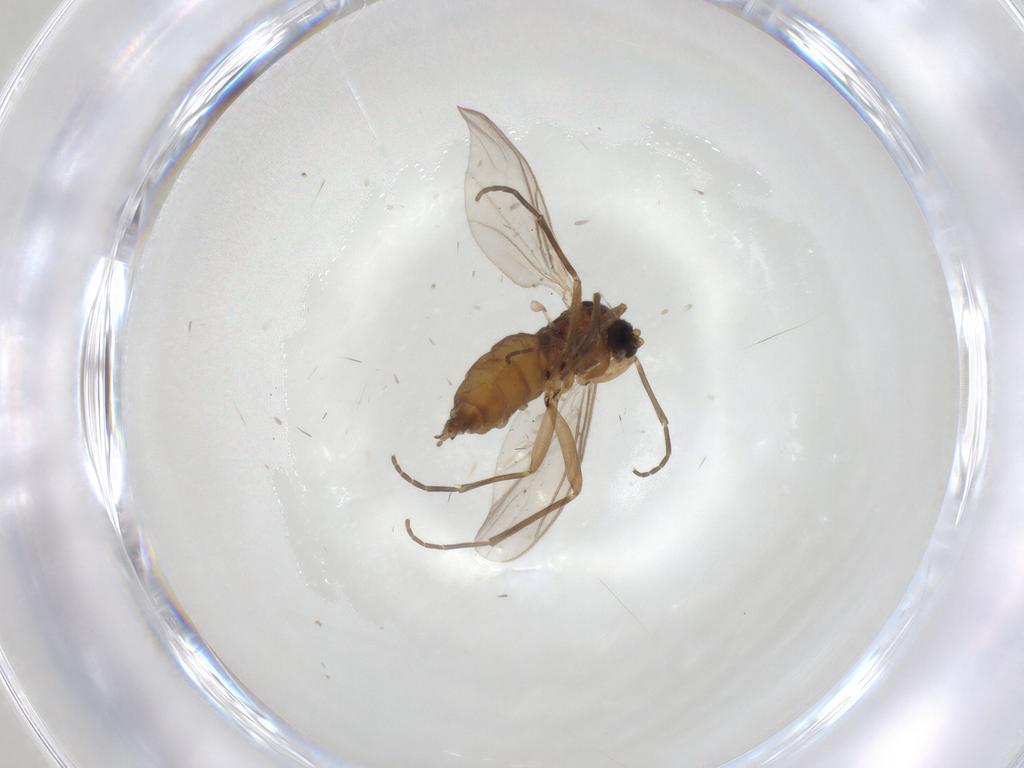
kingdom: Animalia
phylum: Arthropoda
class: Insecta
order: Diptera
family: Sciaridae
